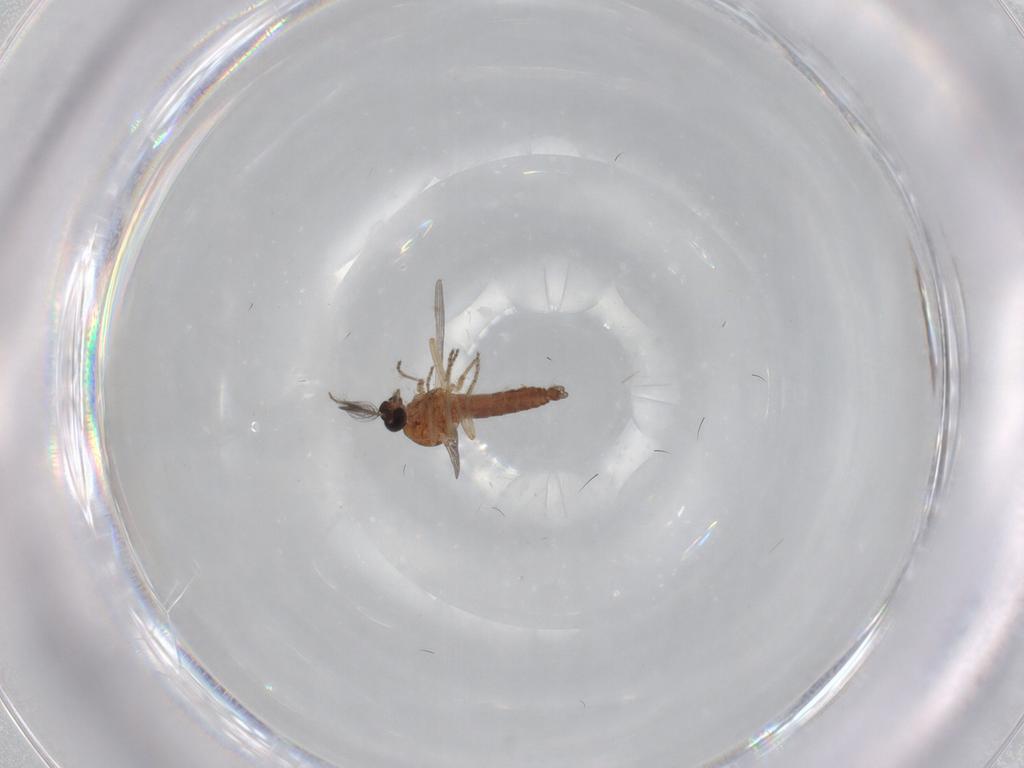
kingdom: Animalia
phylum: Arthropoda
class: Insecta
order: Diptera
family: Ceratopogonidae
